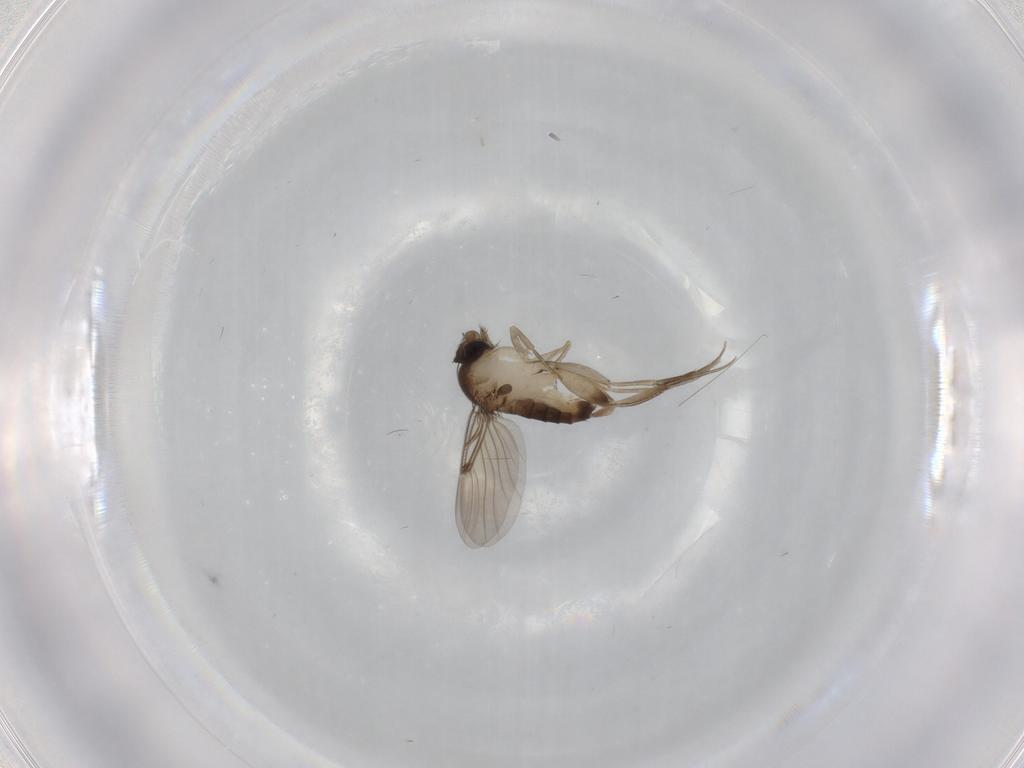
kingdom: Animalia
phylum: Arthropoda
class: Insecta
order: Diptera
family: Phoridae
